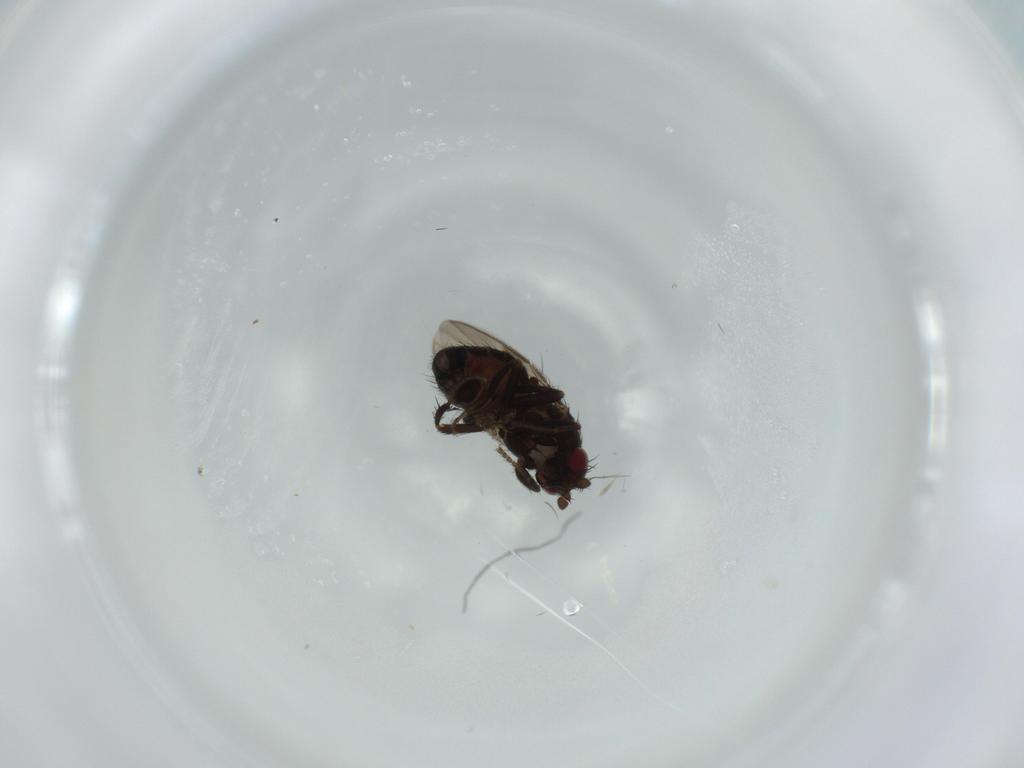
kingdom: Animalia
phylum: Arthropoda
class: Insecta
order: Diptera
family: Sphaeroceridae
